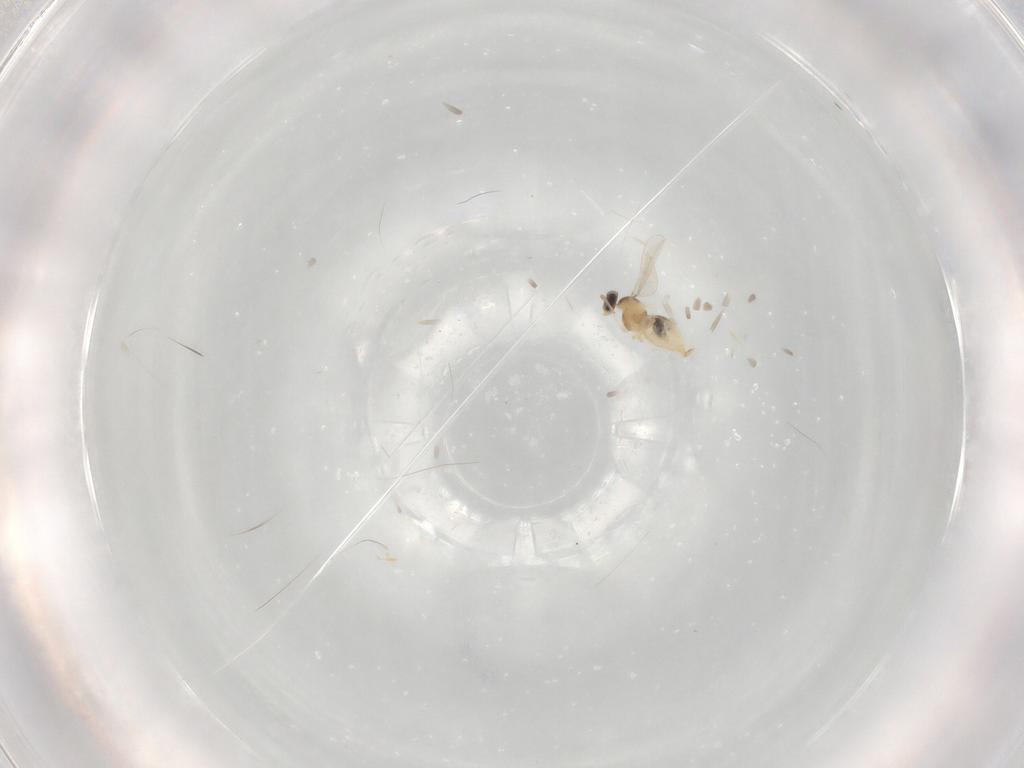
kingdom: Animalia
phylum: Arthropoda
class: Insecta
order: Diptera
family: Cecidomyiidae
